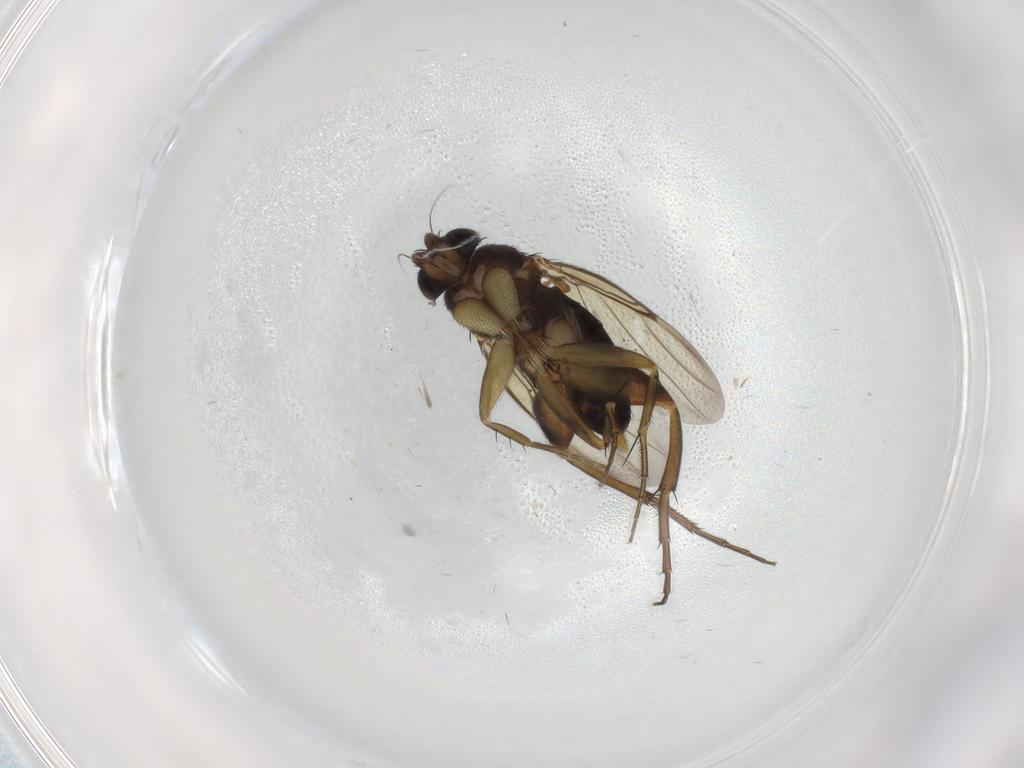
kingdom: Animalia
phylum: Arthropoda
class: Insecta
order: Diptera
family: Phoridae
